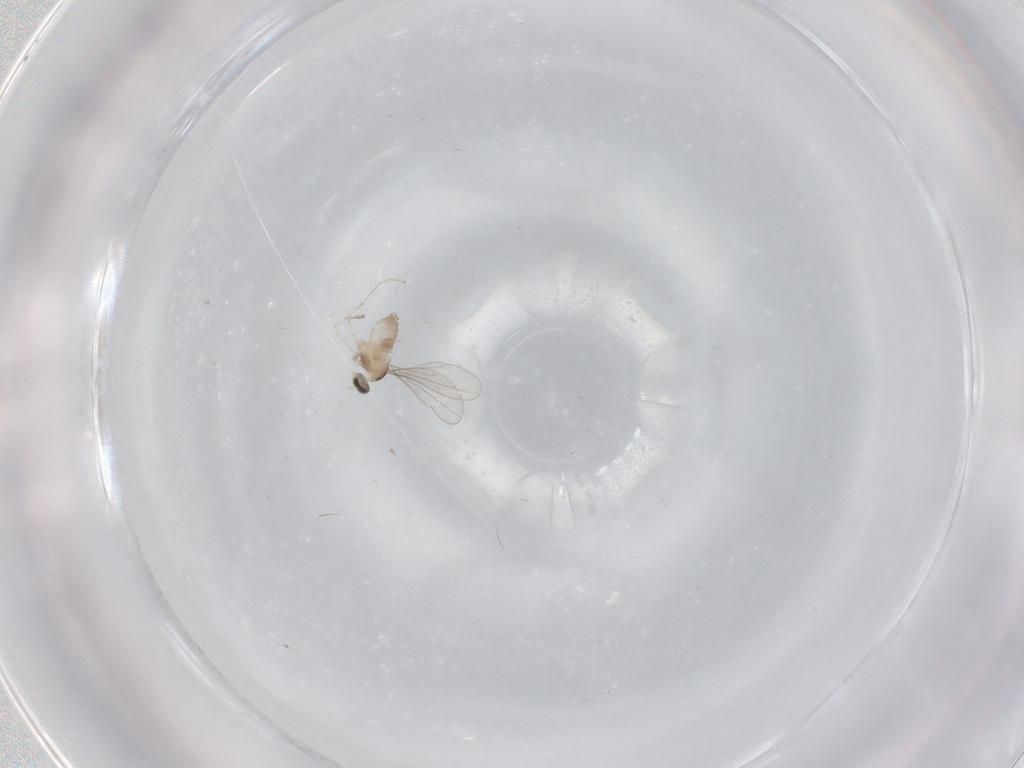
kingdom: Animalia
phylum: Arthropoda
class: Insecta
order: Diptera
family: Cecidomyiidae
